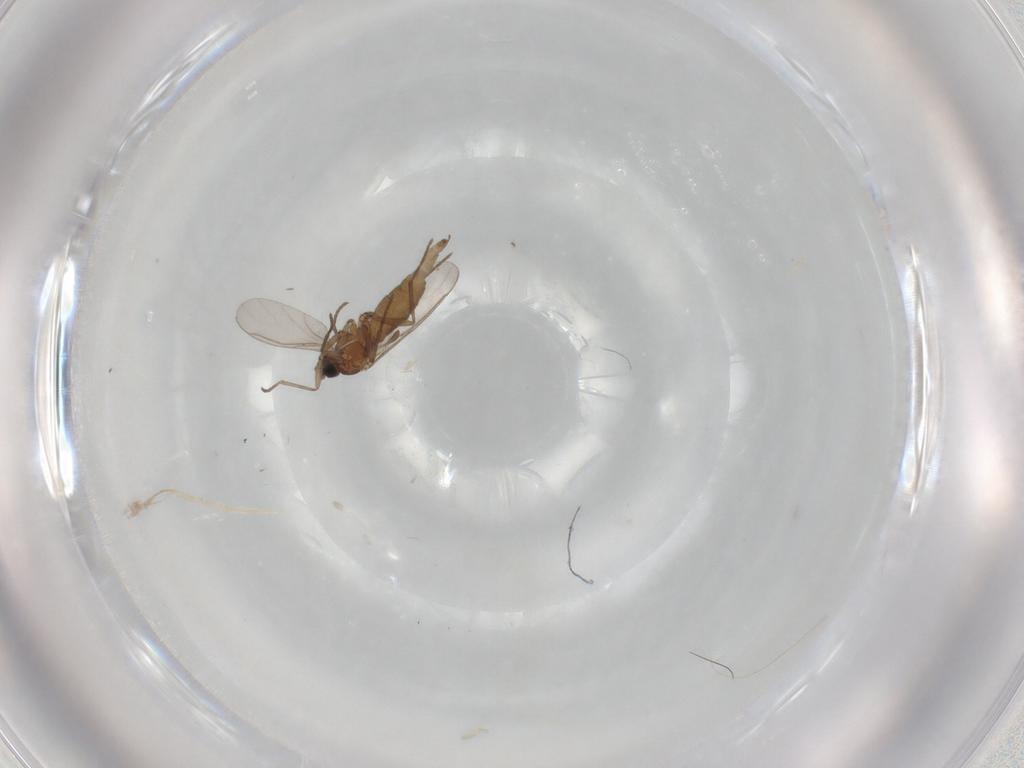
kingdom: Animalia
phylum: Arthropoda
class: Insecta
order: Diptera
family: Sciaridae
